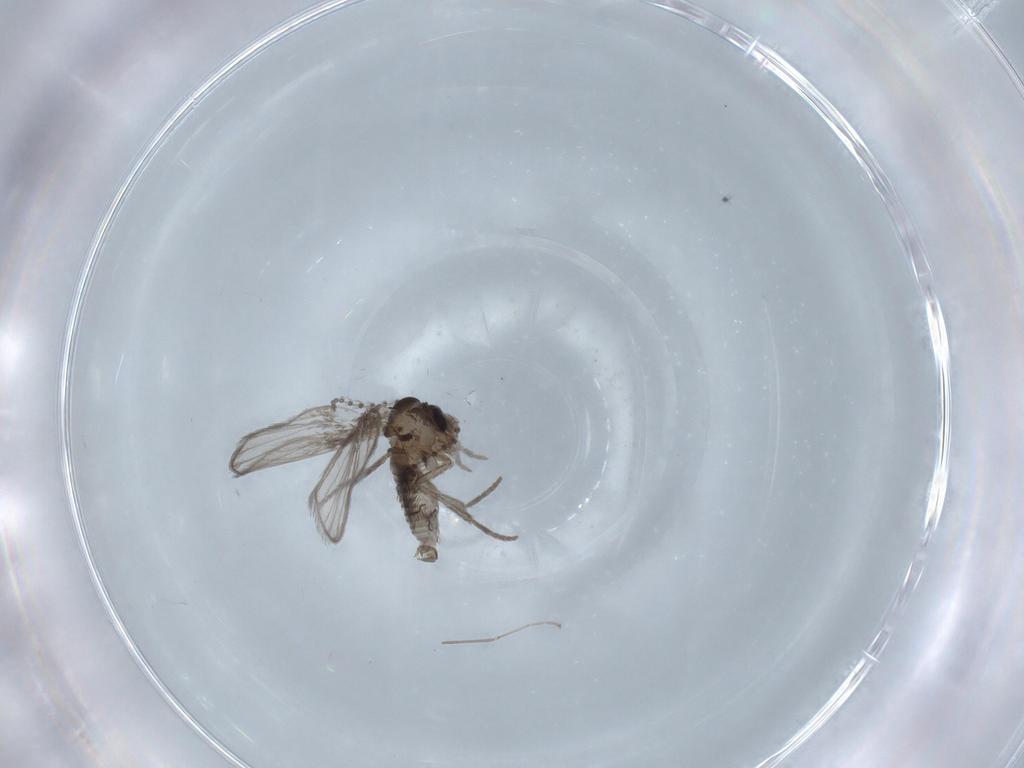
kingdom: Animalia
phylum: Arthropoda
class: Insecta
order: Diptera
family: Psychodidae
